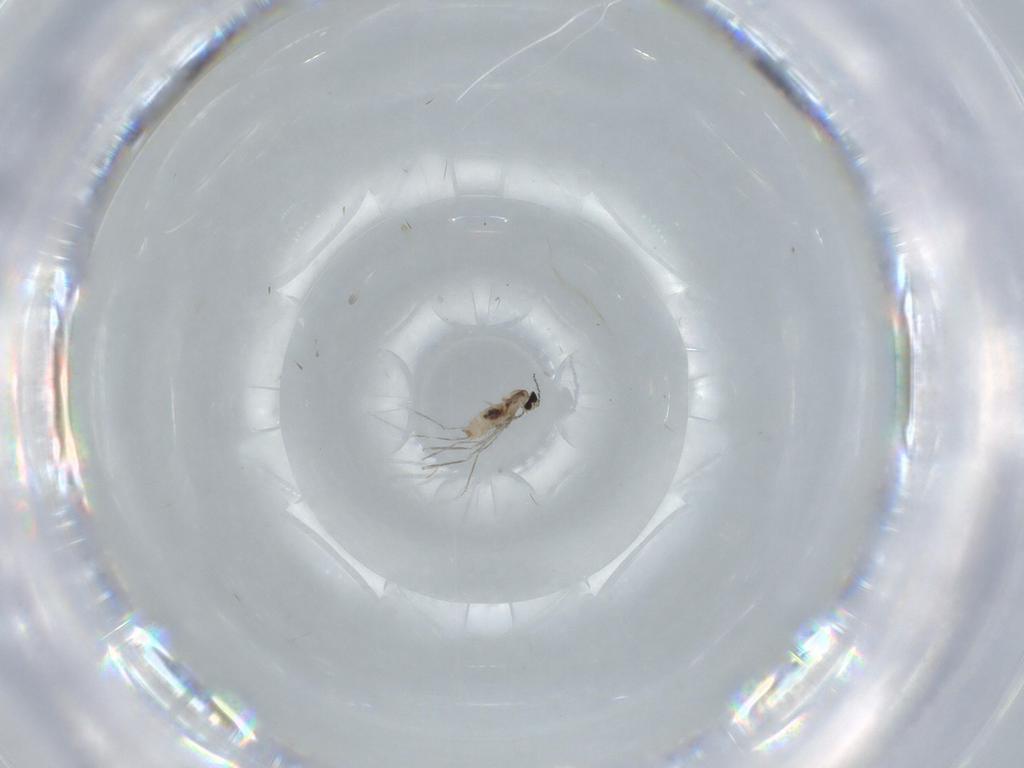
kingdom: Animalia
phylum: Arthropoda
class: Insecta
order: Diptera
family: Cecidomyiidae
